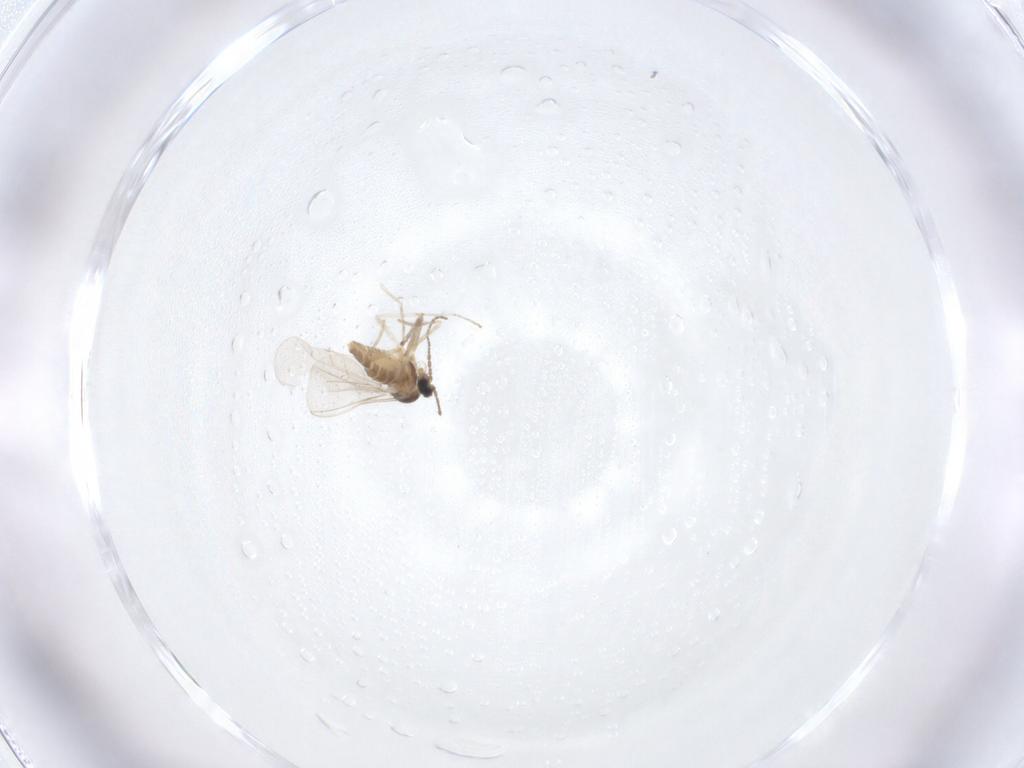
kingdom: Animalia
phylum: Arthropoda
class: Insecta
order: Diptera
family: Cecidomyiidae
